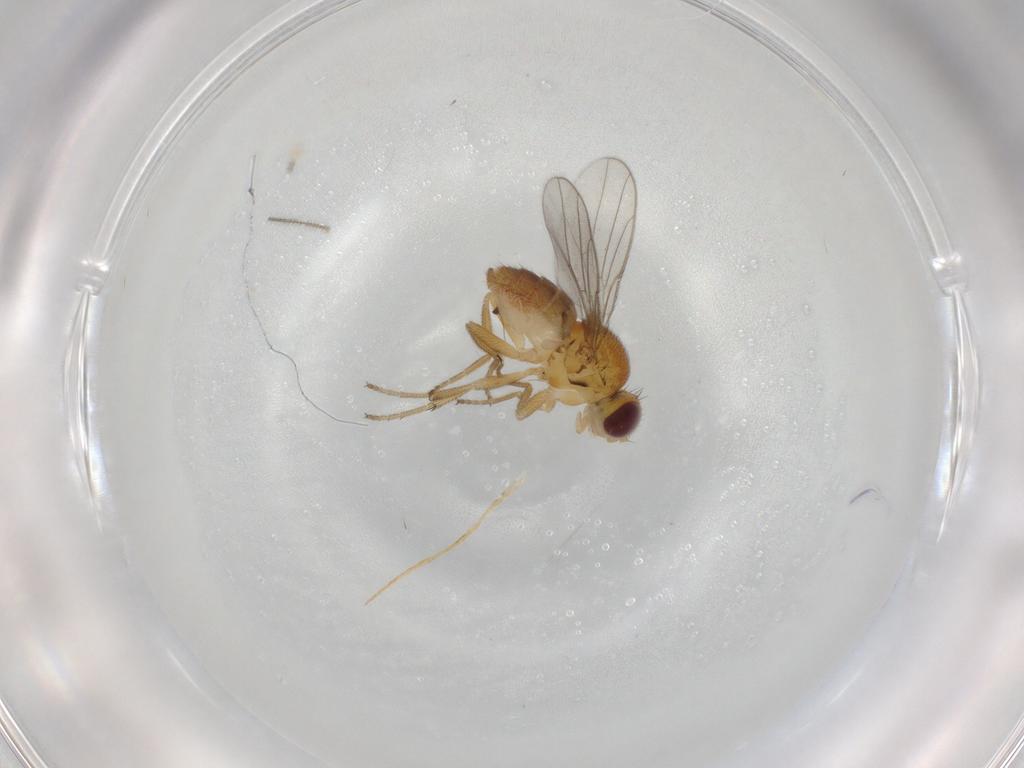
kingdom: Animalia
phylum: Arthropoda
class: Insecta
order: Diptera
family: Chloropidae
